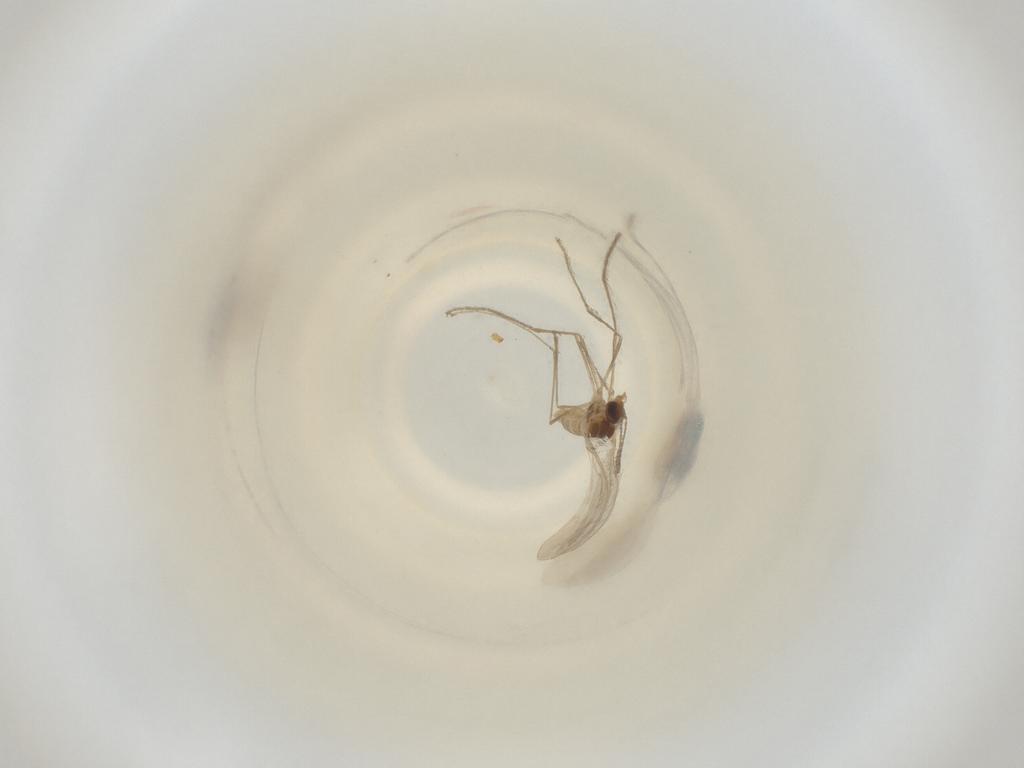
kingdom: Animalia
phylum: Arthropoda
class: Insecta
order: Diptera
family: Cecidomyiidae
